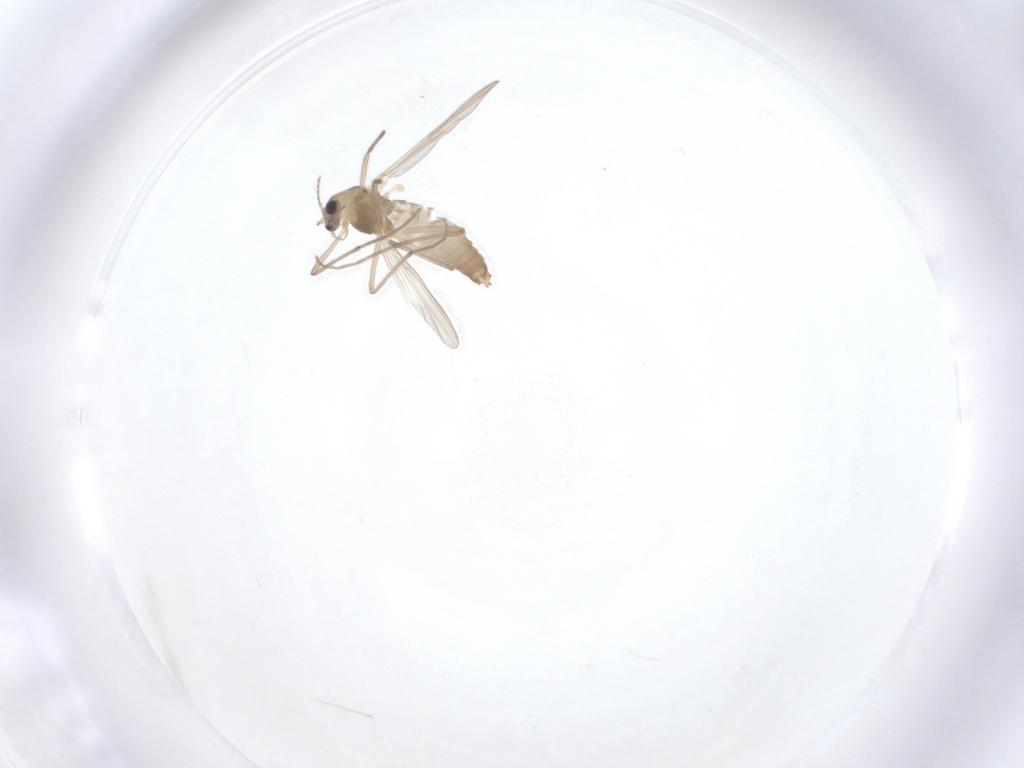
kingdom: Animalia
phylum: Arthropoda
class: Insecta
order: Diptera
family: Chironomidae
